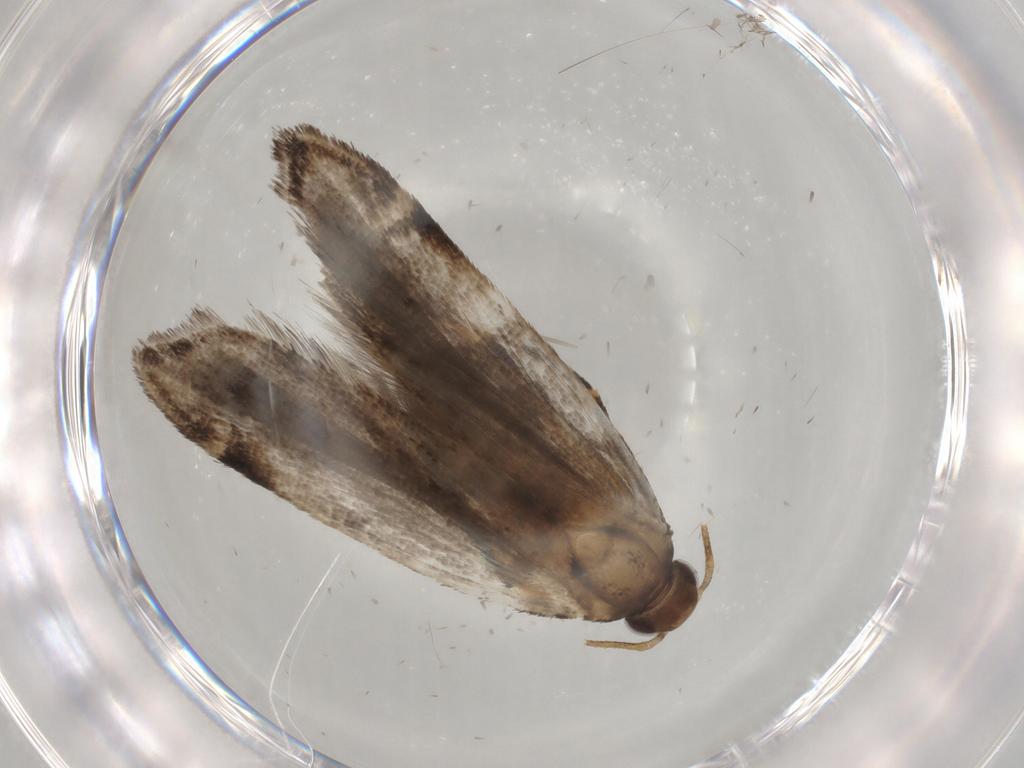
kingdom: Animalia
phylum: Arthropoda
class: Insecta
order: Lepidoptera
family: Gelechiidae
